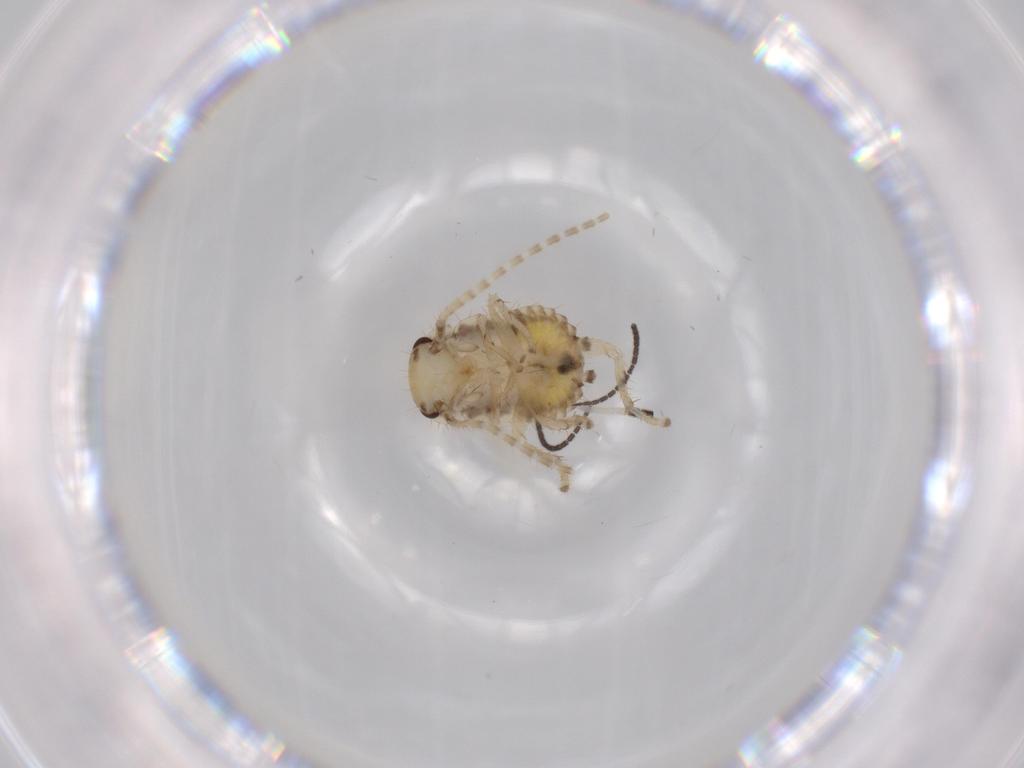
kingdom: Animalia
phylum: Arthropoda
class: Insecta
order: Blattodea
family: Ectobiidae
